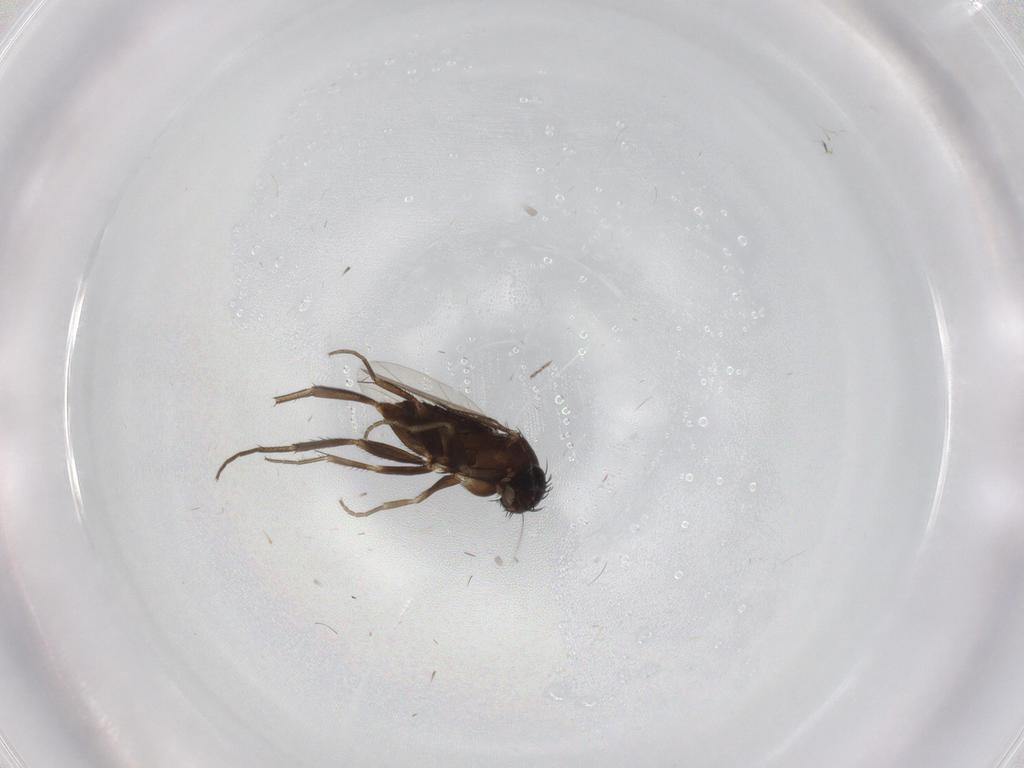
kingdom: Animalia
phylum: Arthropoda
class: Insecta
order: Diptera
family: Phoridae
